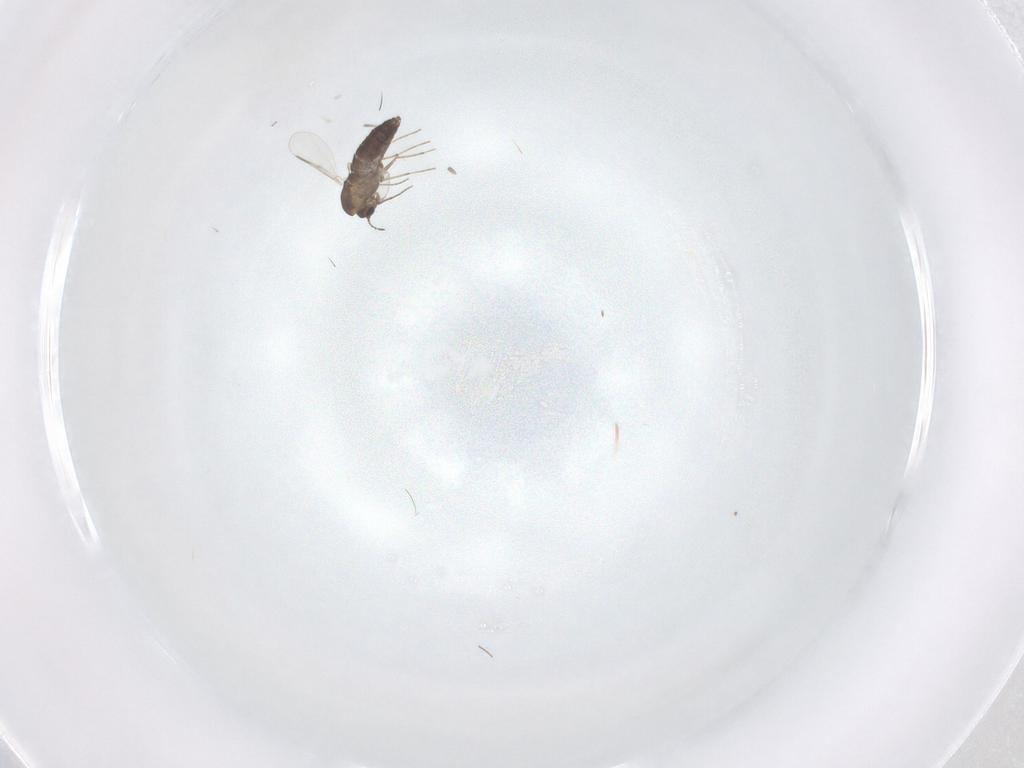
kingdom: Animalia
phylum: Arthropoda
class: Insecta
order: Diptera
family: Chironomidae
